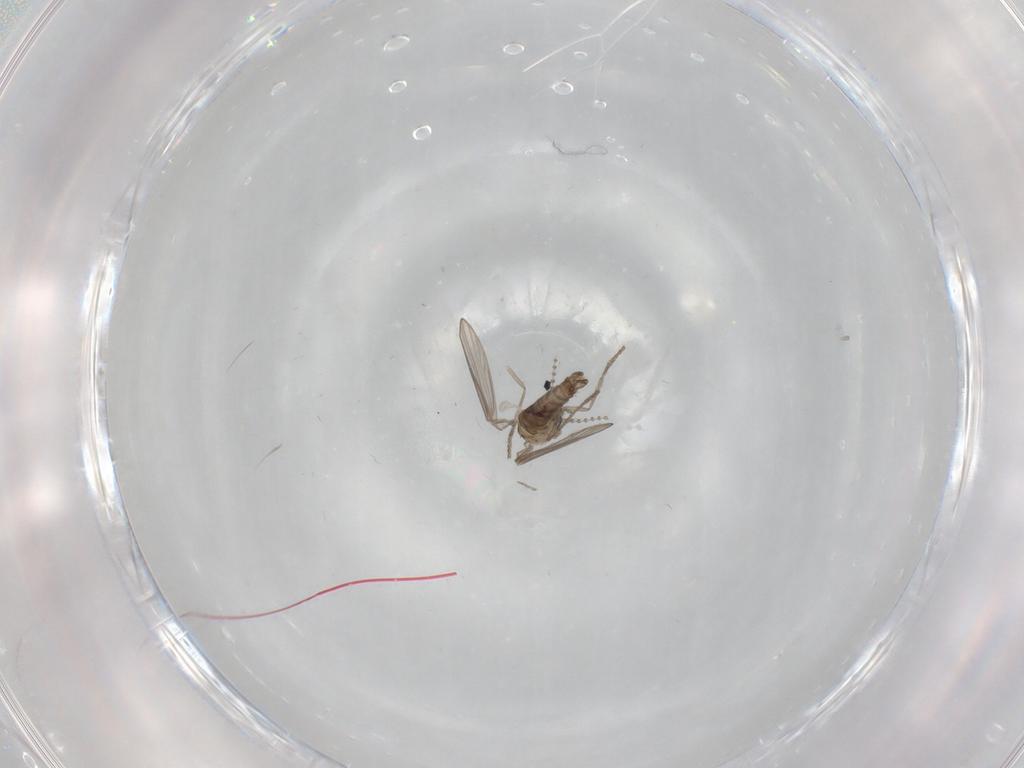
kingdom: Animalia
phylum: Arthropoda
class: Insecta
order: Diptera
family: Psychodidae
